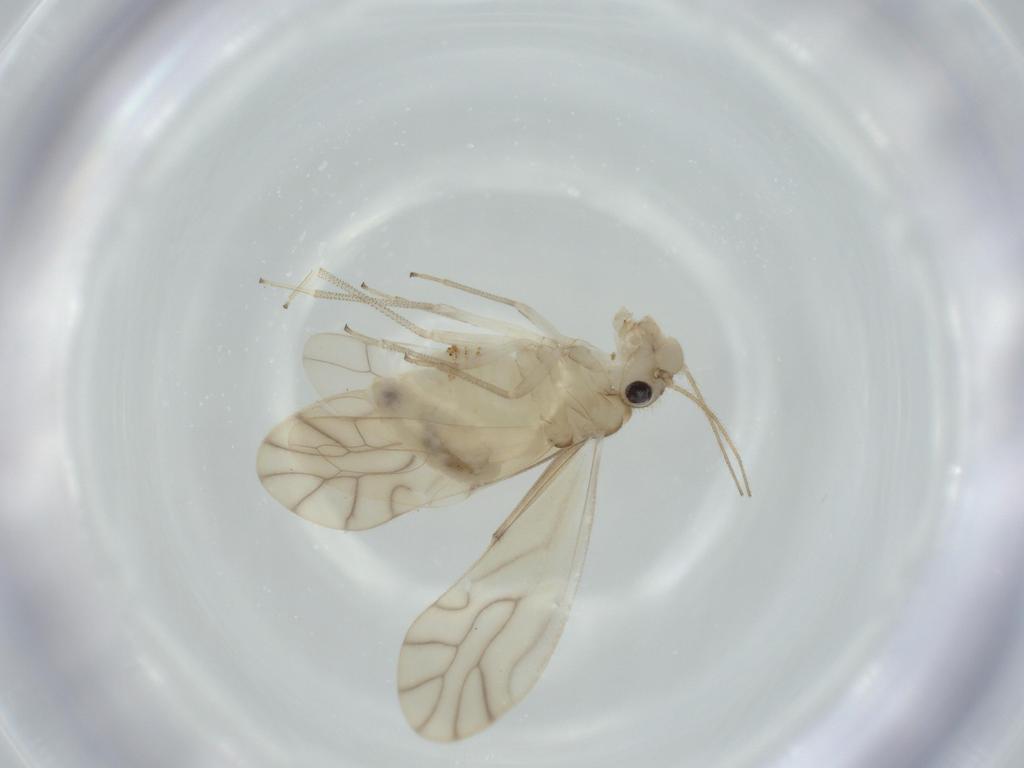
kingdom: Animalia
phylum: Arthropoda
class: Insecta
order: Psocodea
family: Caeciliusidae
